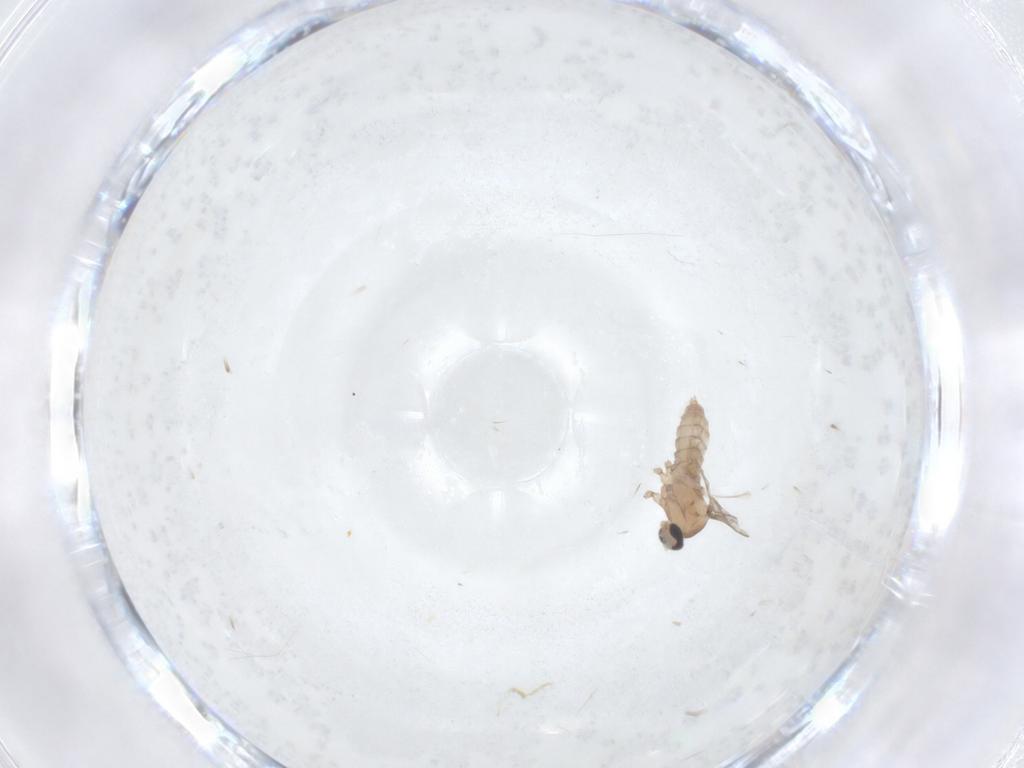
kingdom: Animalia
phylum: Arthropoda
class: Insecta
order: Diptera
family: Cecidomyiidae
